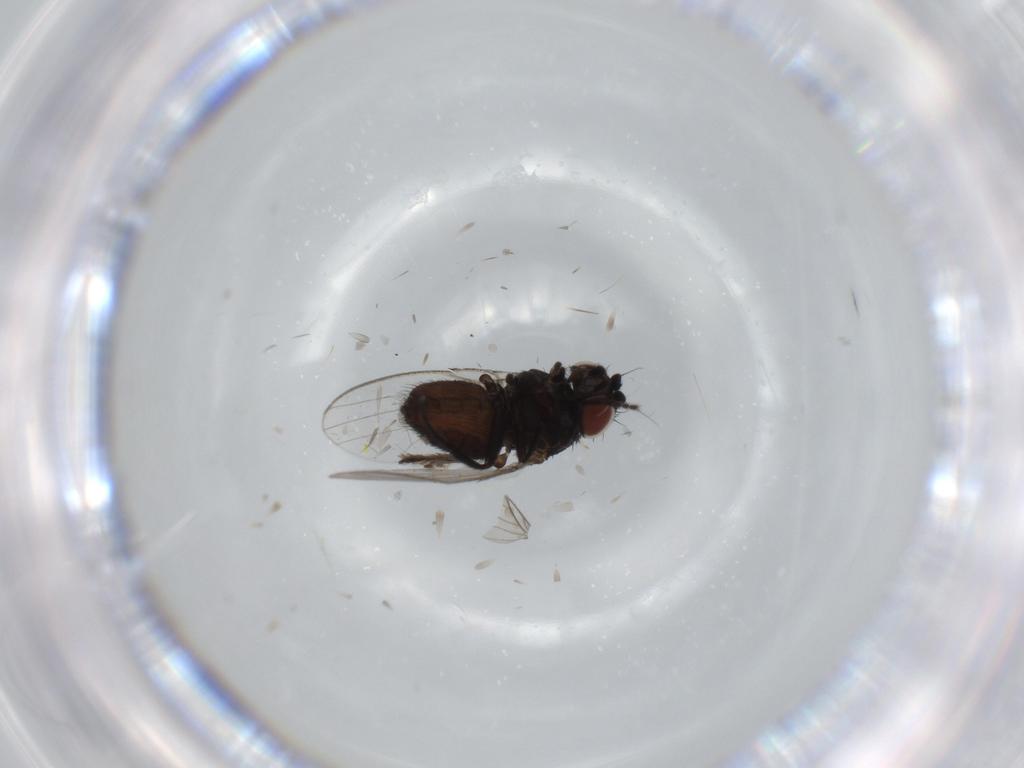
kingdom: Animalia
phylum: Arthropoda
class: Insecta
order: Diptera
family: Milichiidae
